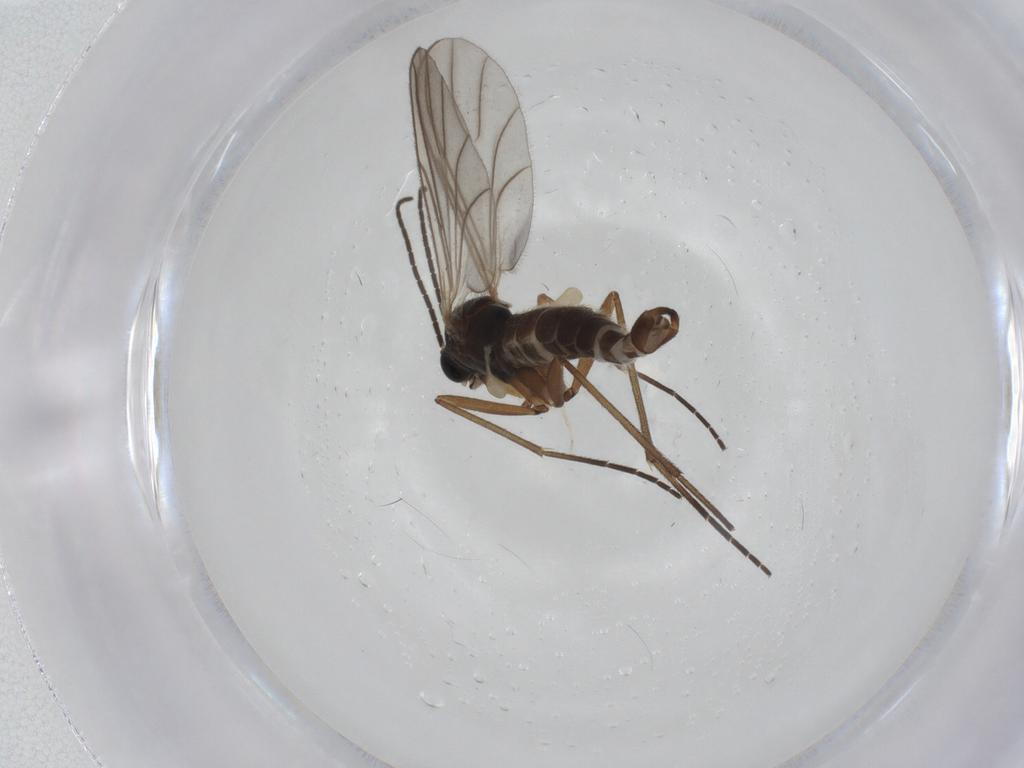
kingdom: Animalia
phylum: Arthropoda
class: Insecta
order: Diptera
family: Sciaridae
